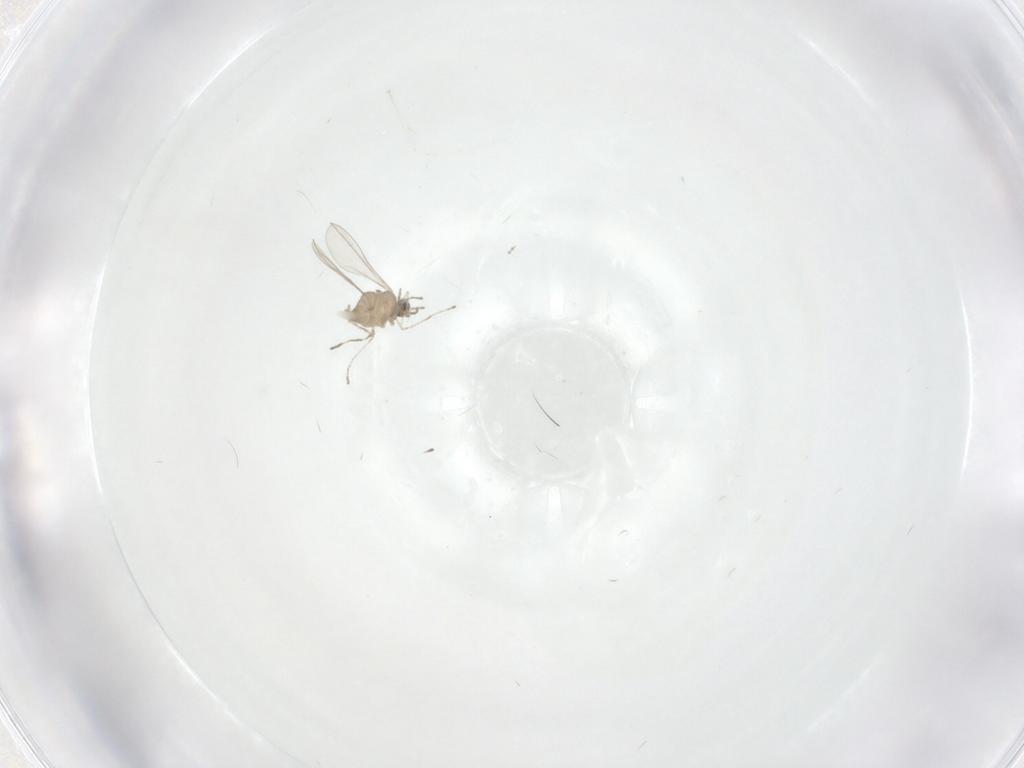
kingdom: Animalia
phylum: Arthropoda
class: Insecta
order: Diptera
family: Cecidomyiidae
